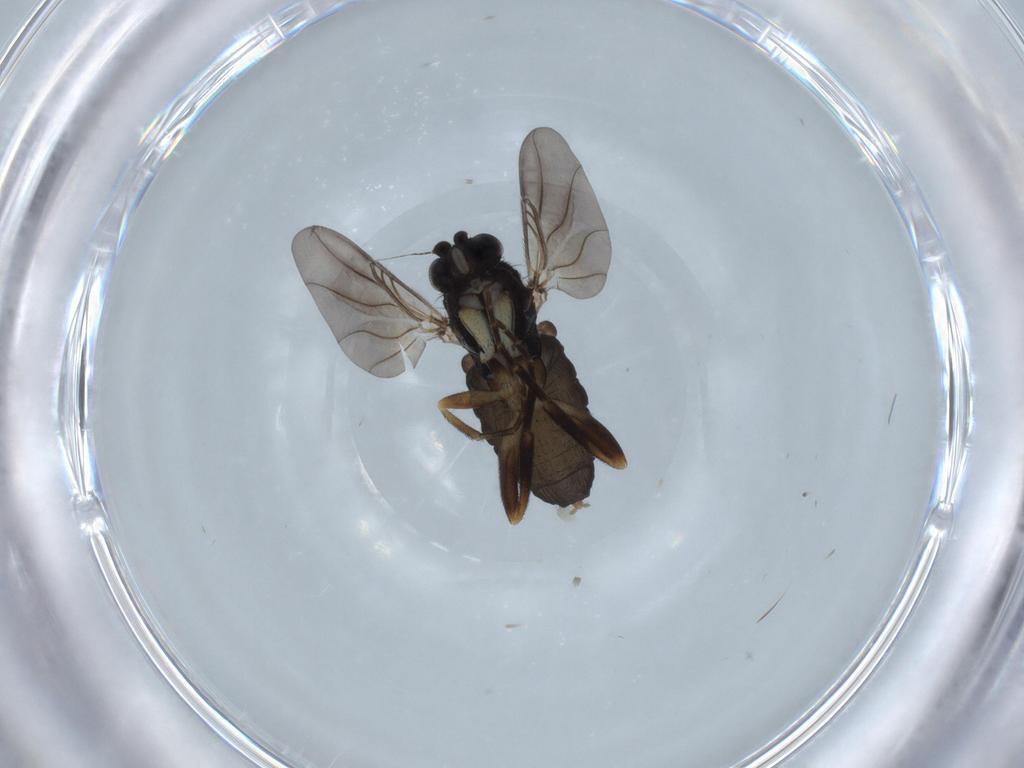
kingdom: Animalia
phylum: Arthropoda
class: Insecta
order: Diptera
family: Phoridae
